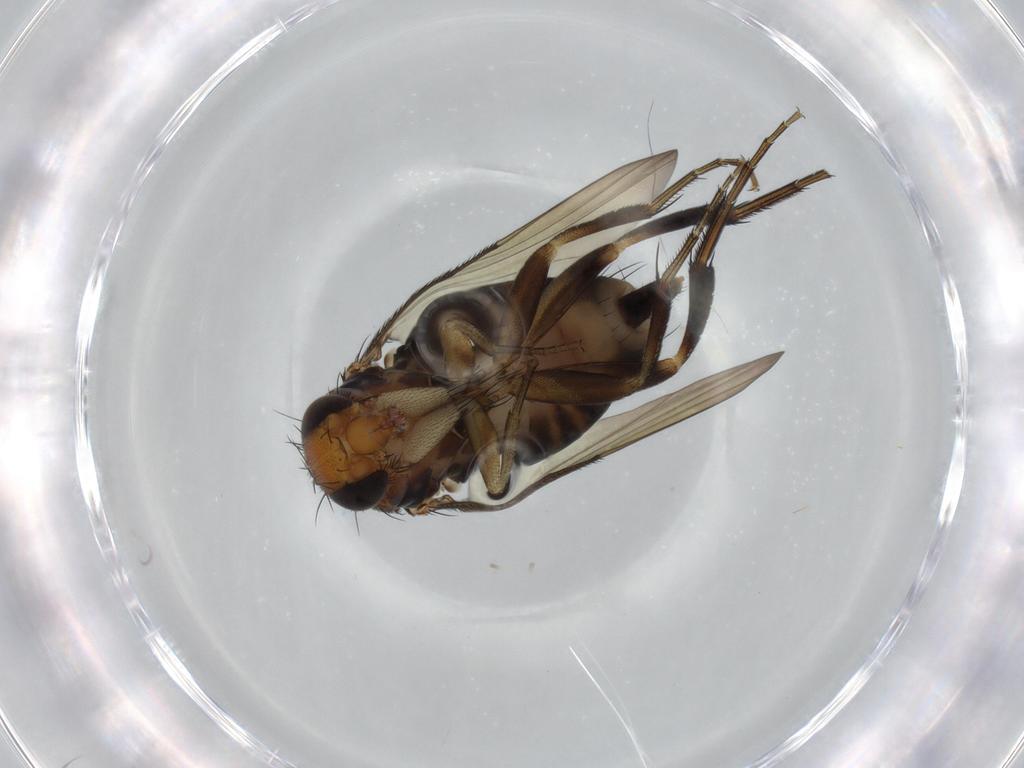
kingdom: Animalia
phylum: Arthropoda
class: Insecta
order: Diptera
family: Phoridae
